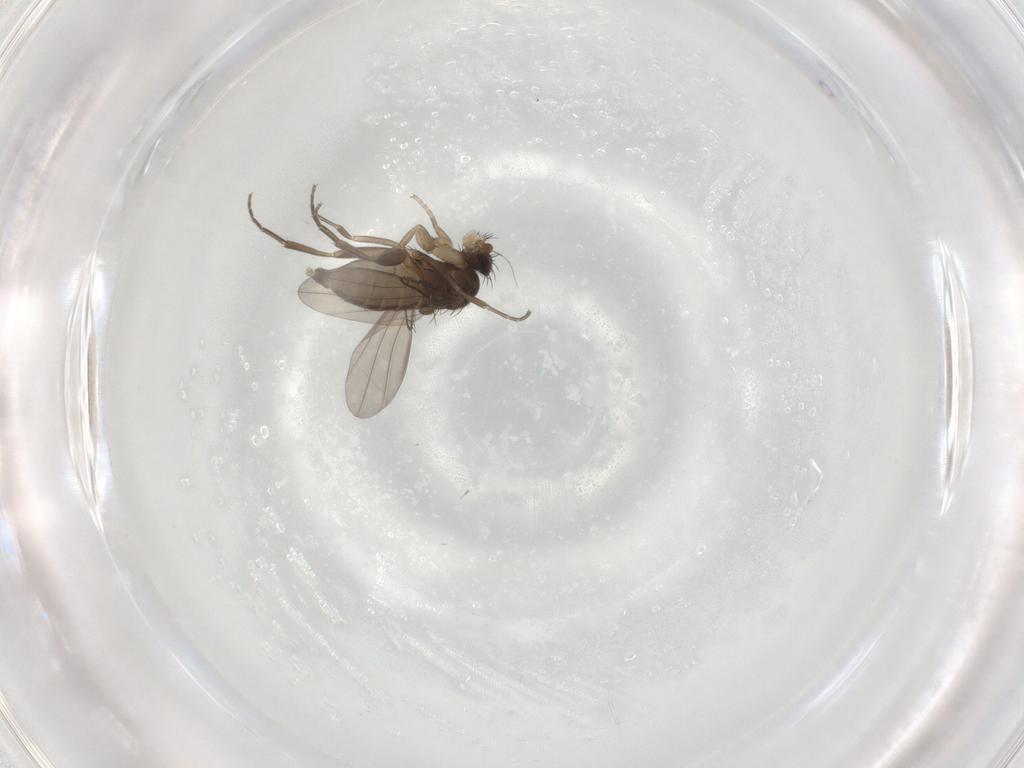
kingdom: Animalia
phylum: Arthropoda
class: Insecta
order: Diptera
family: Phoridae
